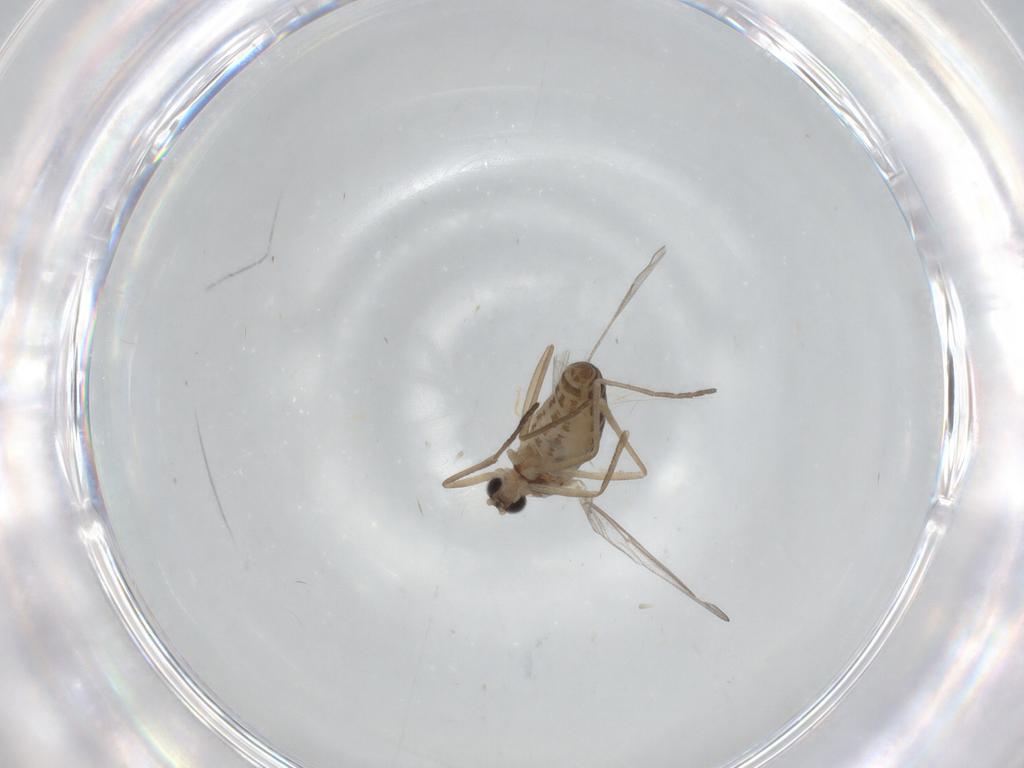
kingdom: Animalia
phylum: Arthropoda
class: Insecta
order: Diptera
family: Cecidomyiidae
